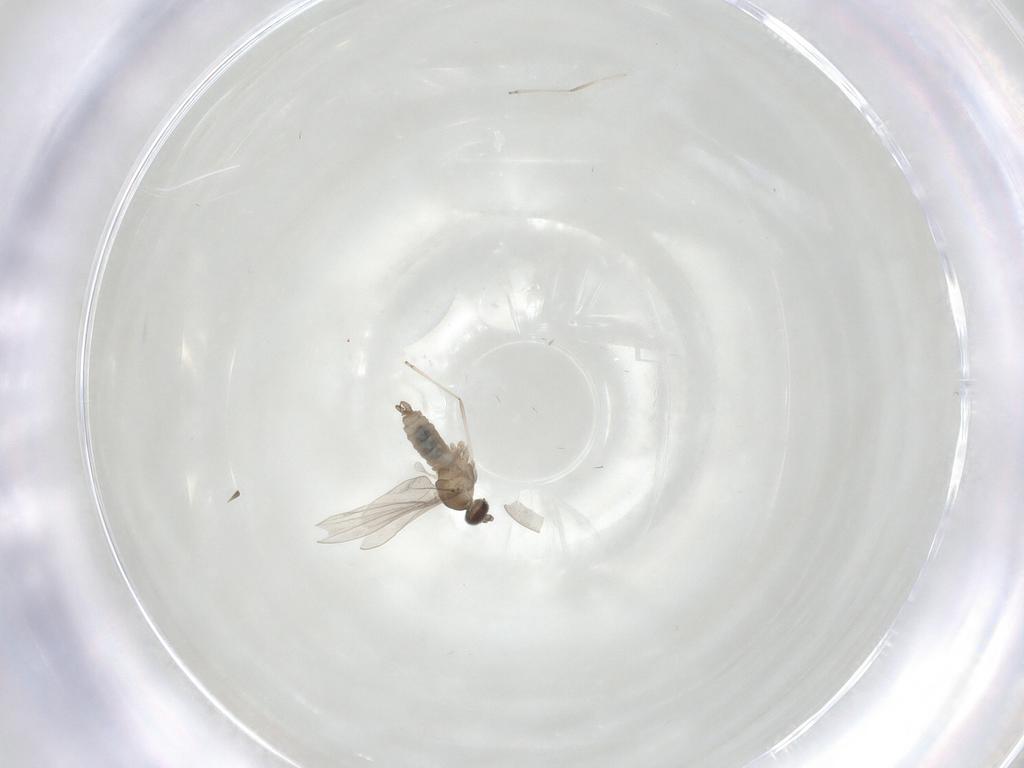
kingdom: Animalia
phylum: Arthropoda
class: Insecta
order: Diptera
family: Cecidomyiidae
